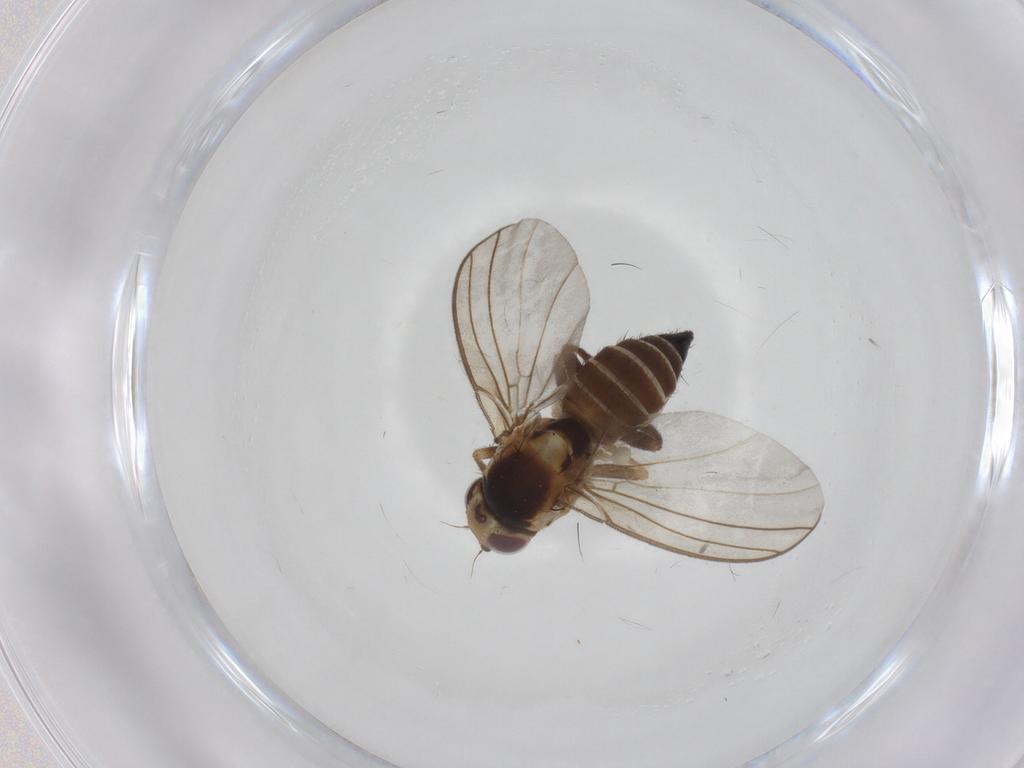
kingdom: Animalia
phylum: Arthropoda
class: Insecta
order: Diptera
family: Agromyzidae
